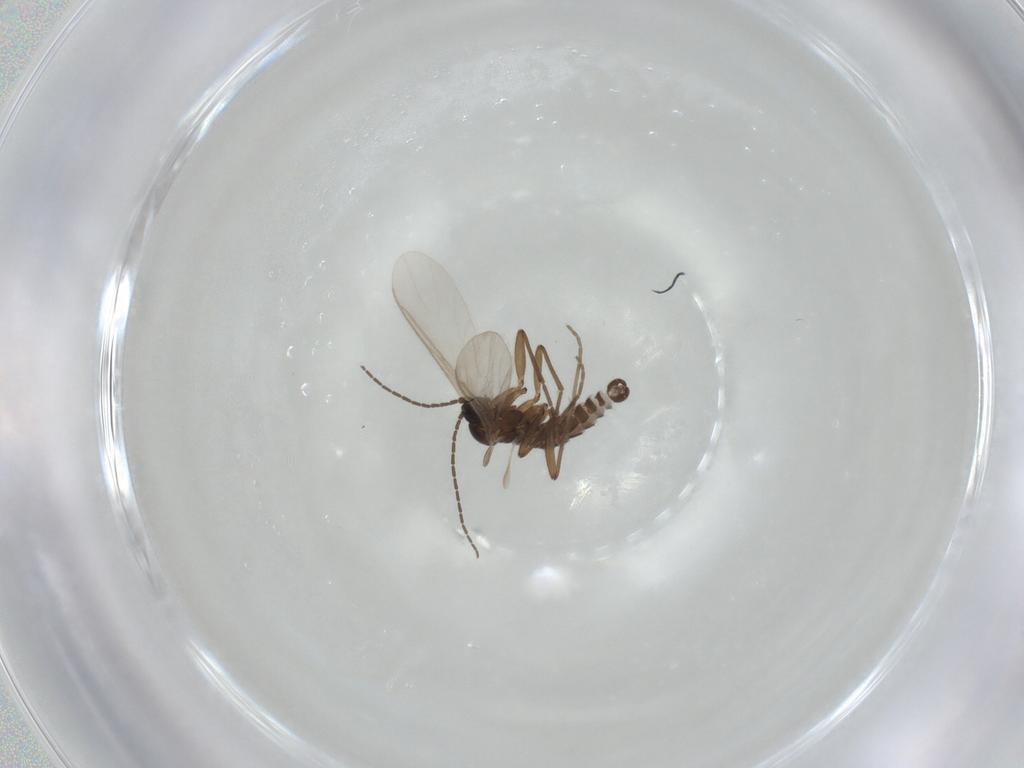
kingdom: Animalia
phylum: Arthropoda
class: Insecta
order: Diptera
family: Sciaridae
